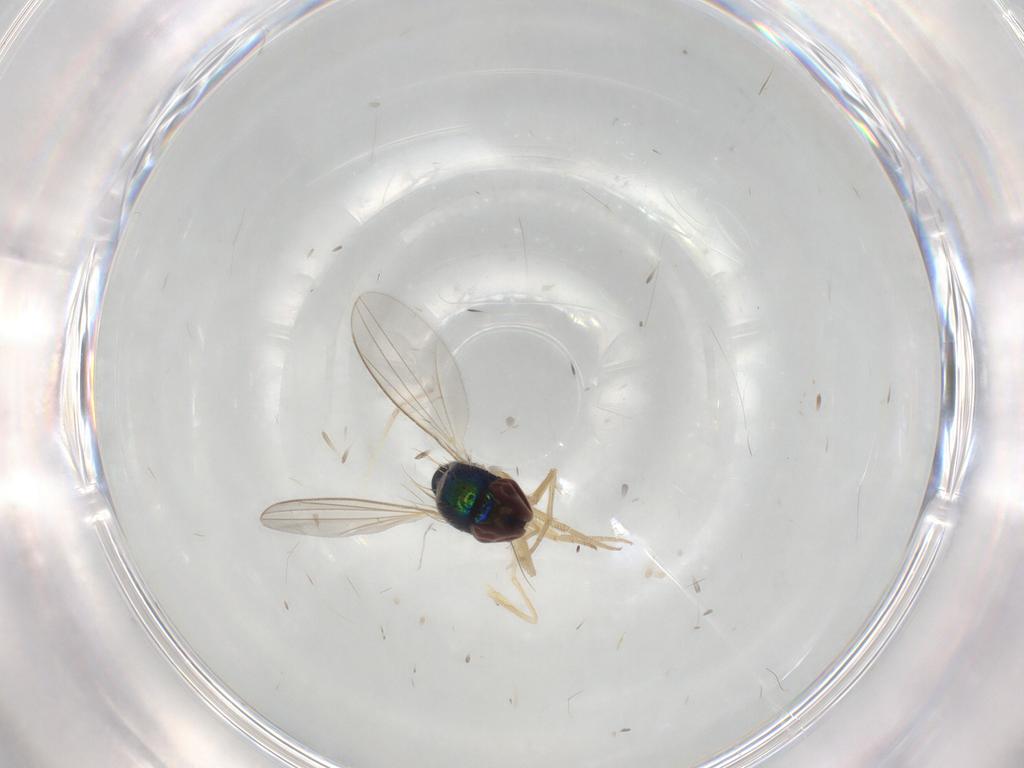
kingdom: Animalia
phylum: Arthropoda
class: Insecta
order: Diptera
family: Dolichopodidae
